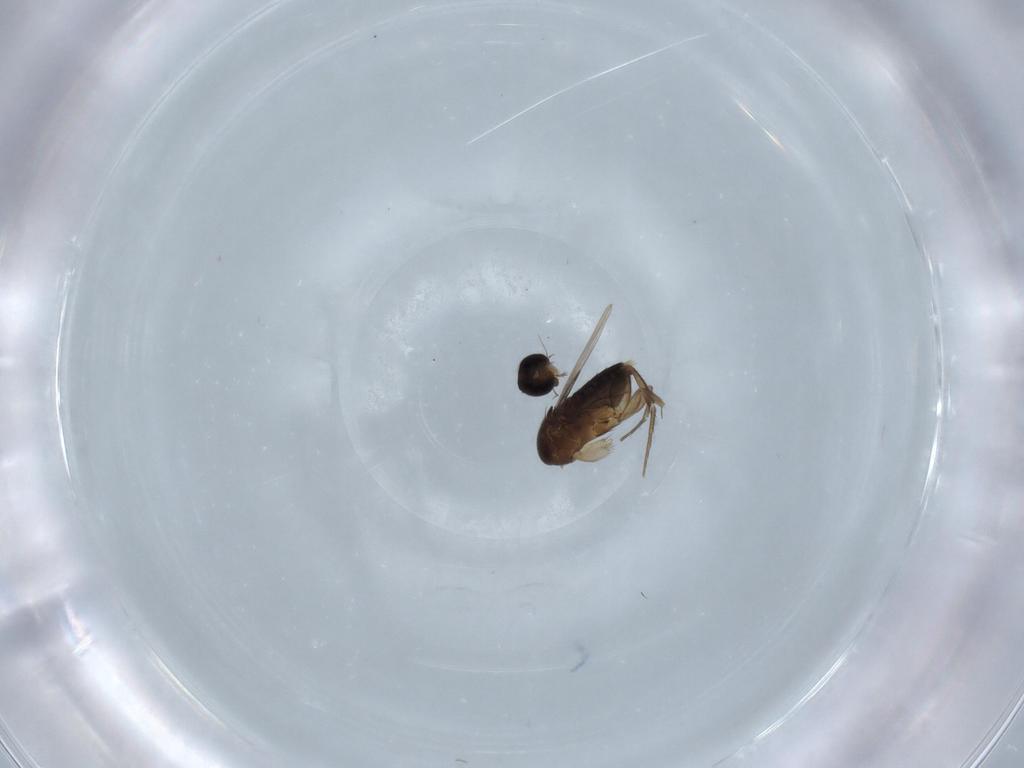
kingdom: Animalia
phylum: Arthropoda
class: Insecta
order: Diptera
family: Phoridae
